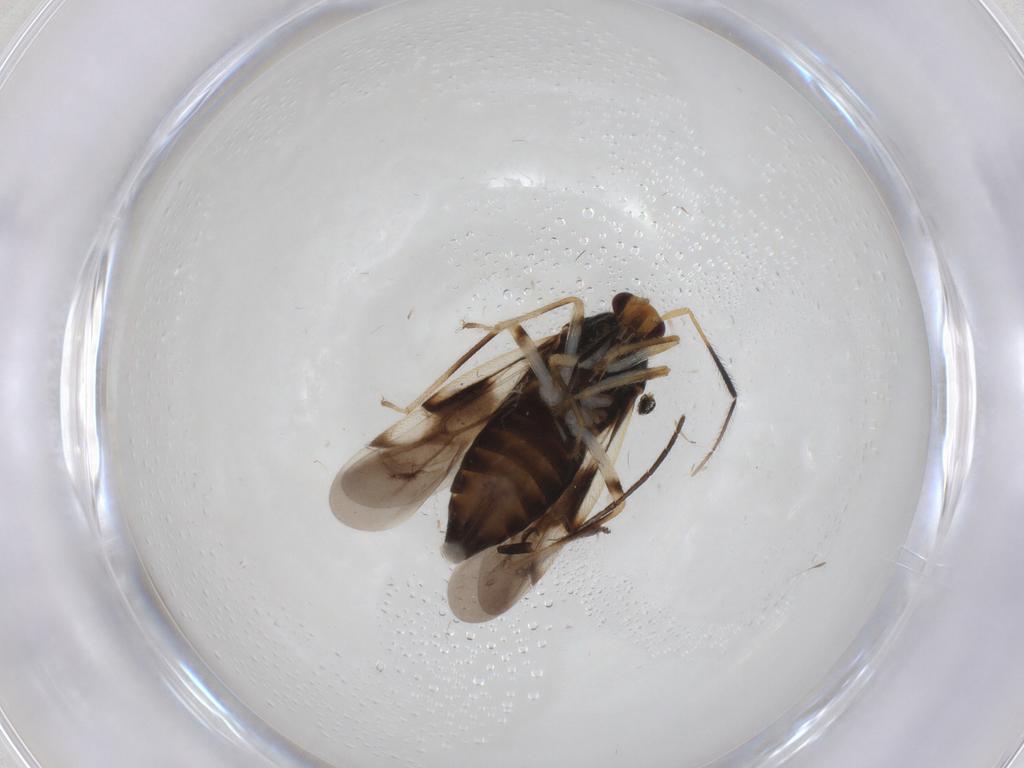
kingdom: Animalia
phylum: Arthropoda
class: Insecta
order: Hemiptera
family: Miridae
